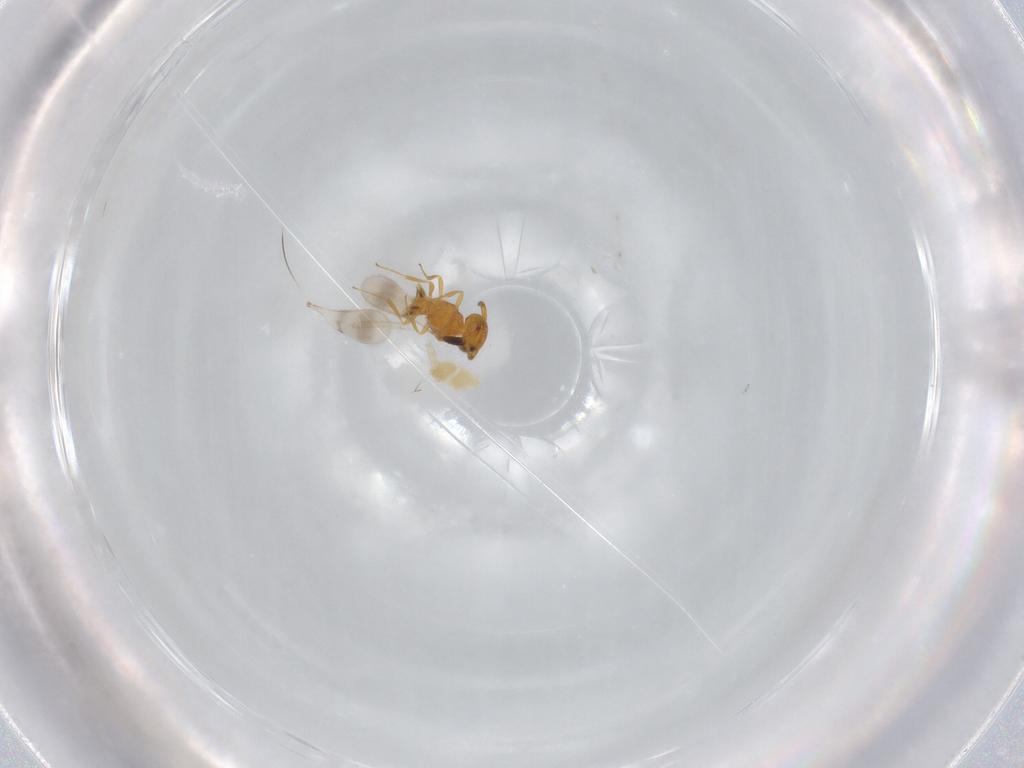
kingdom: Animalia
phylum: Arthropoda
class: Insecta
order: Hymenoptera
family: Scelionidae
